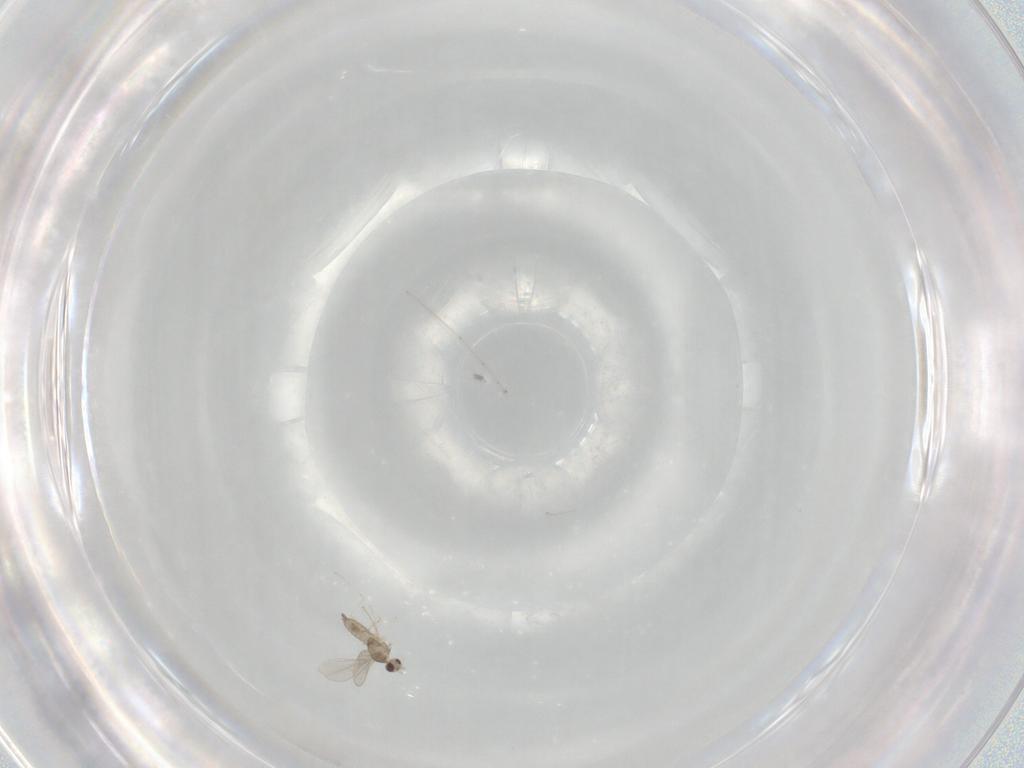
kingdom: Animalia
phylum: Arthropoda
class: Insecta
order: Diptera
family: Cecidomyiidae
